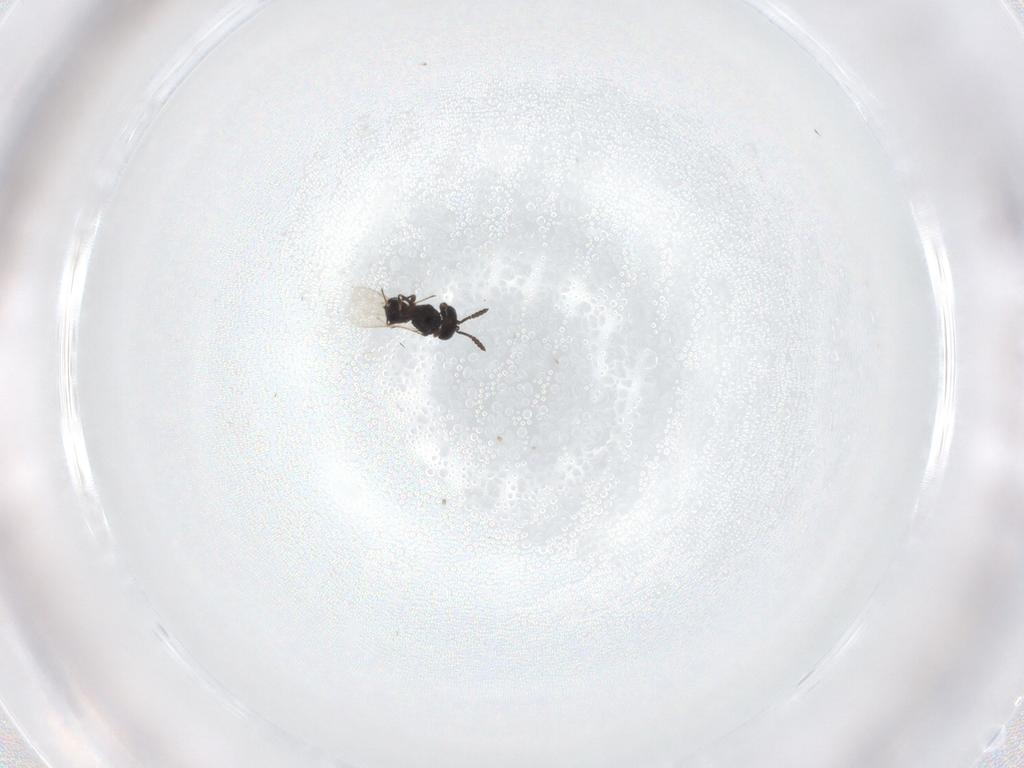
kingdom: Animalia
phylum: Arthropoda
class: Insecta
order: Hymenoptera
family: Scelionidae
